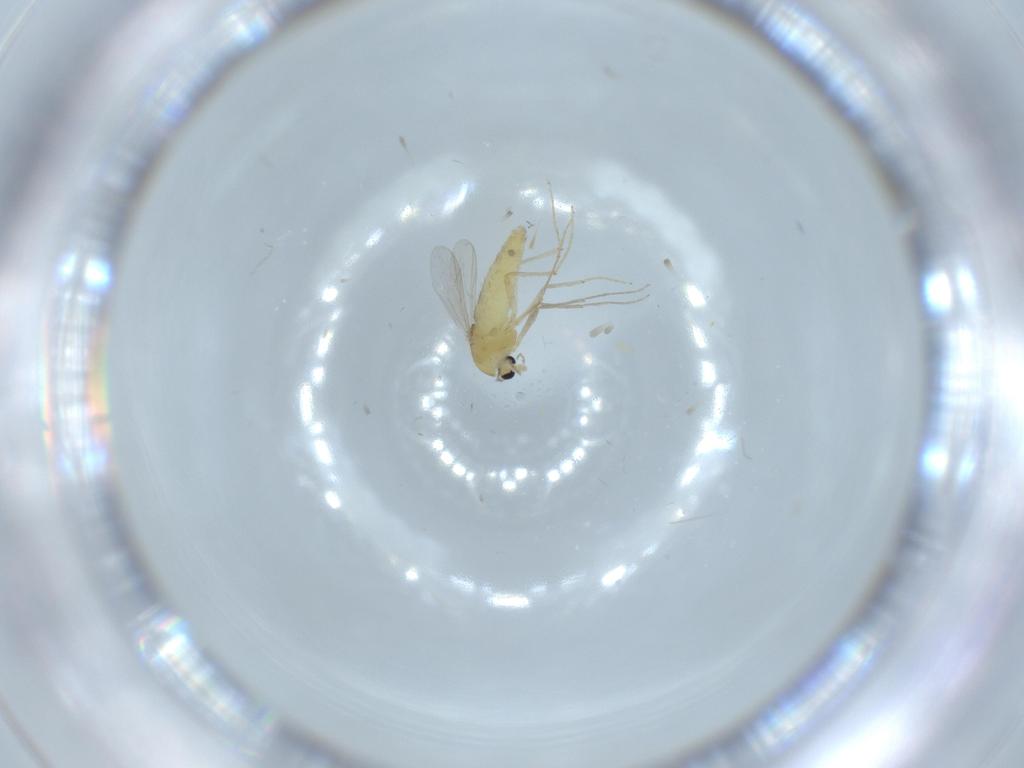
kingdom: Animalia
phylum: Arthropoda
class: Insecta
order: Diptera
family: Chironomidae
